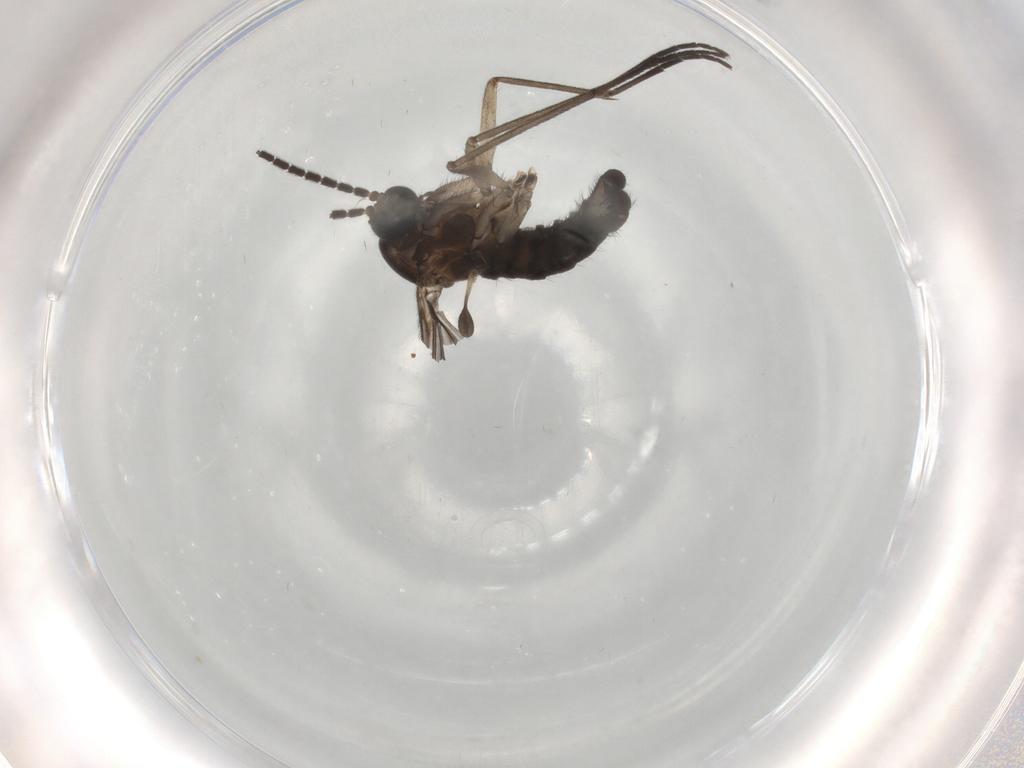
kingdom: Animalia
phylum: Arthropoda
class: Insecta
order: Diptera
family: Sciaridae
